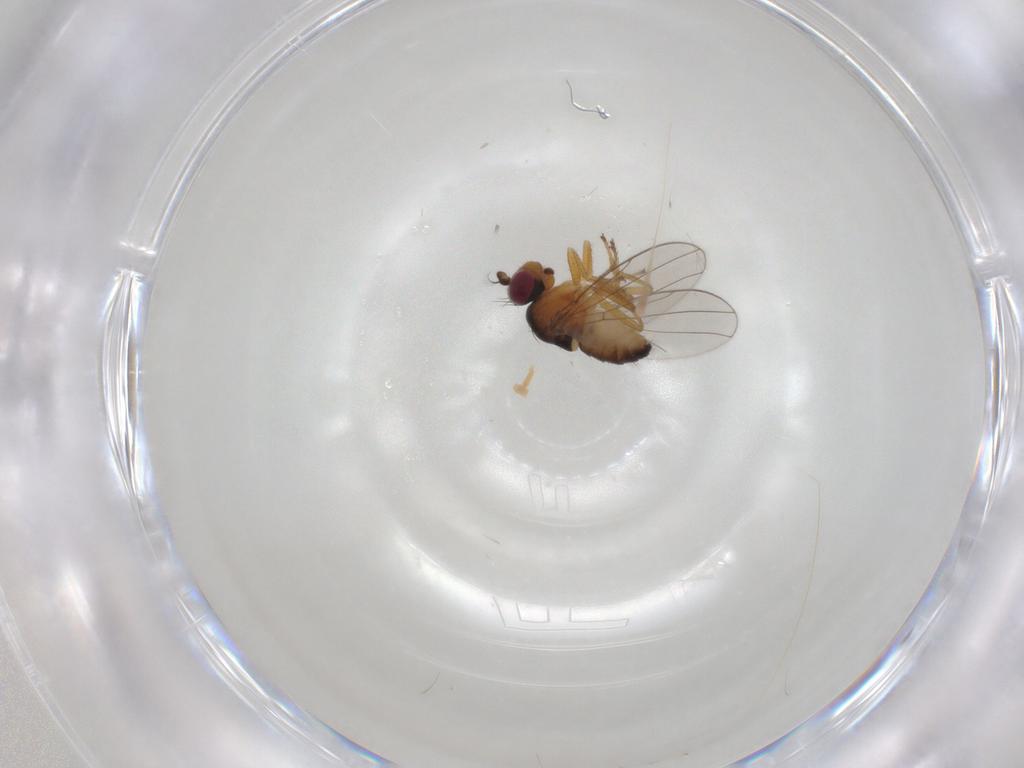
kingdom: Animalia
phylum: Arthropoda
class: Insecta
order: Diptera
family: Ephydridae
